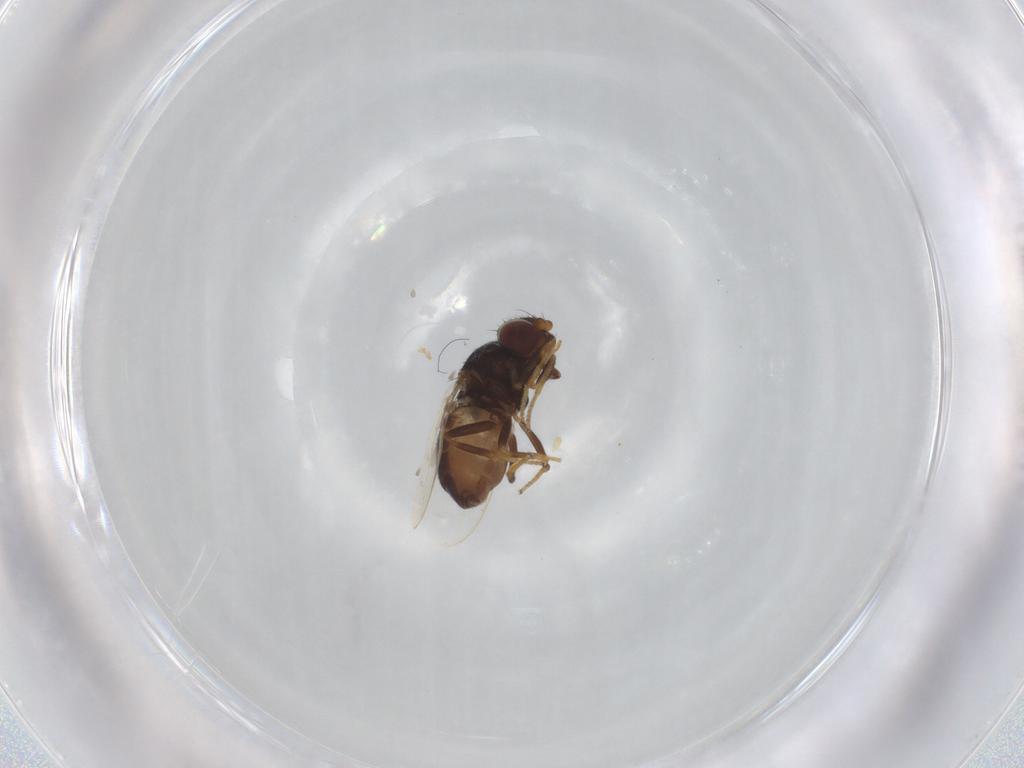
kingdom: Animalia
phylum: Arthropoda
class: Insecta
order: Diptera
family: Chloropidae
